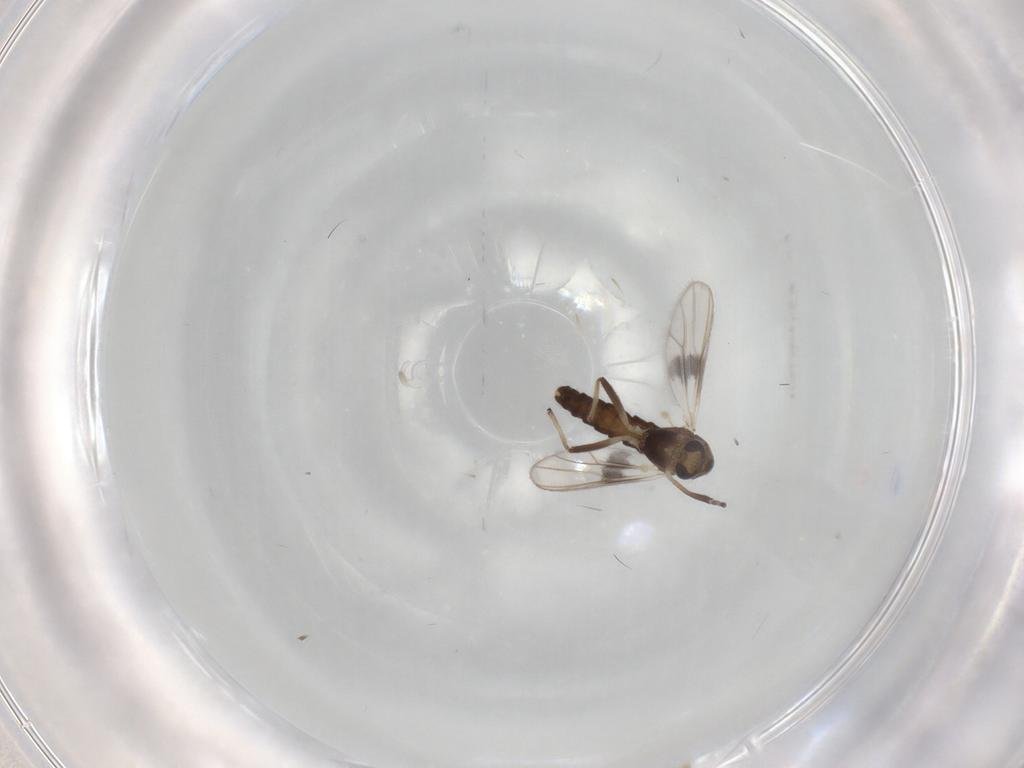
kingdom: Animalia
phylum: Arthropoda
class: Insecta
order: Diptera
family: Chironomidae
